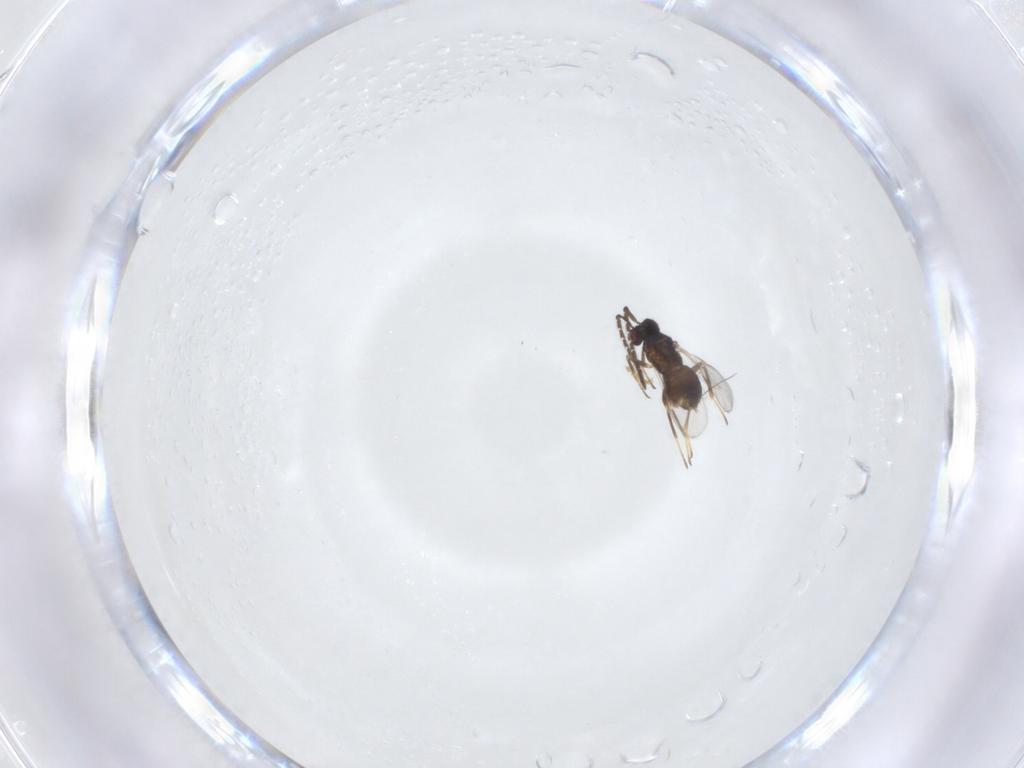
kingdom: Animalia
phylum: Arthropoda
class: Insecta
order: Hymenoptera
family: Encyrtidae
